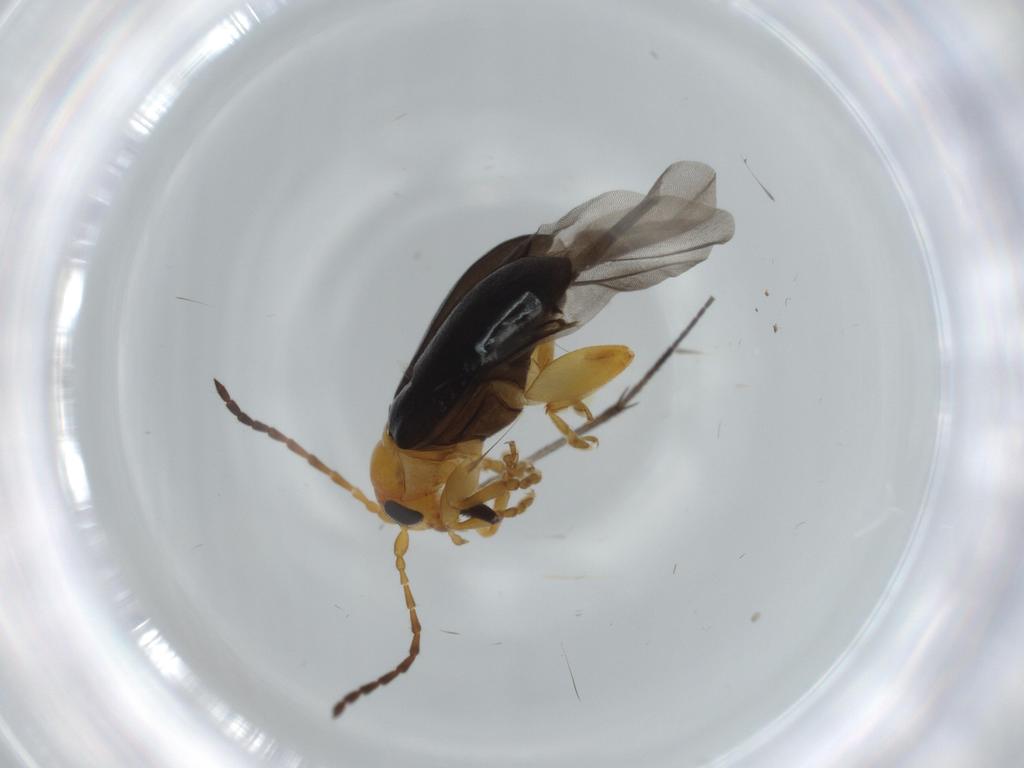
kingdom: Animalia
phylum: Arthropoda
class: Insecta
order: Coleoptera
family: Chrysomelidae
